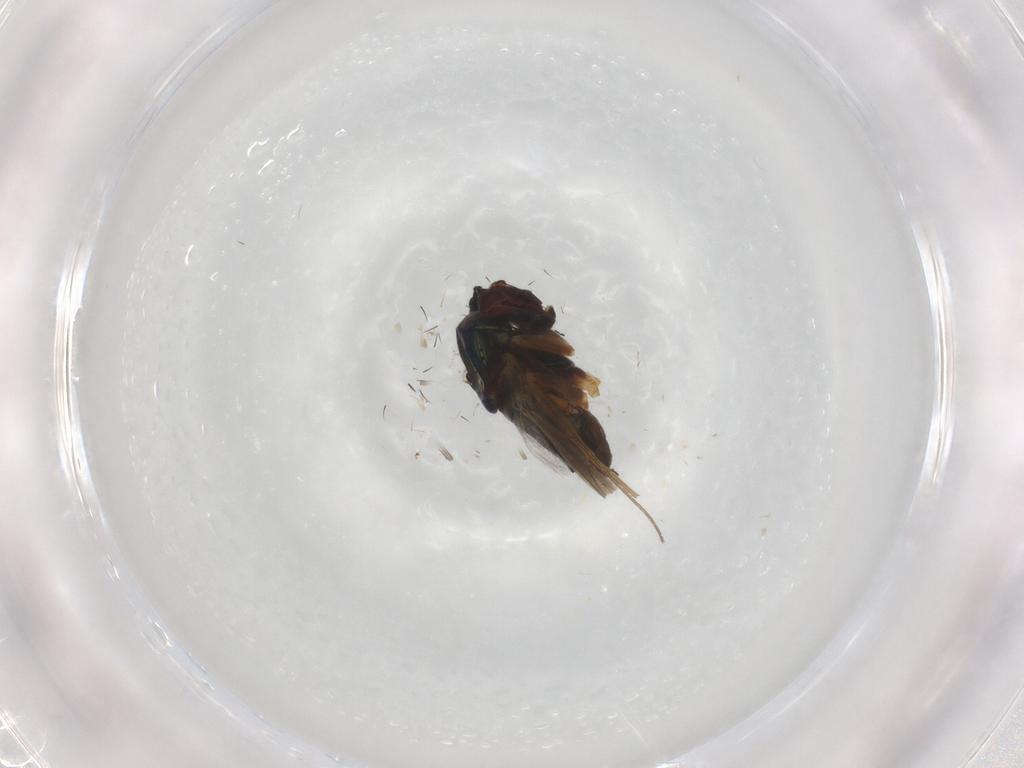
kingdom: Animalia
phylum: Arthropoda
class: Insecta
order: Diptera
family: Dolichopodidae
